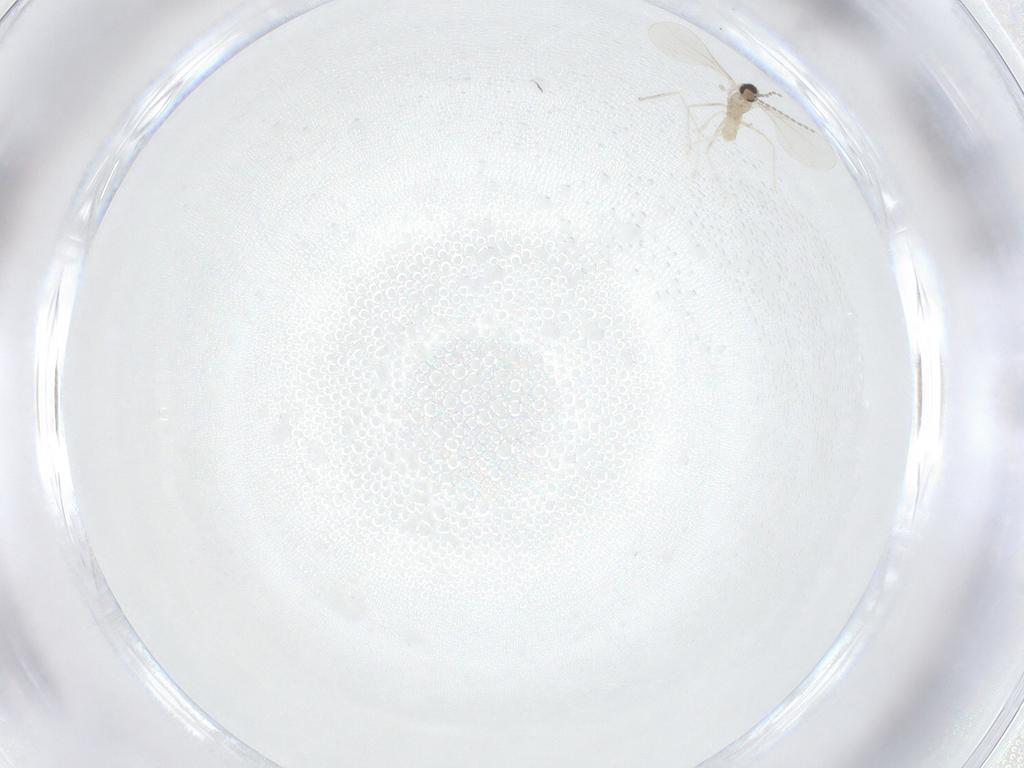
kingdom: Animalia
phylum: Arthropoda
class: Insecta
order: Diptera
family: Cecidomyiidae
